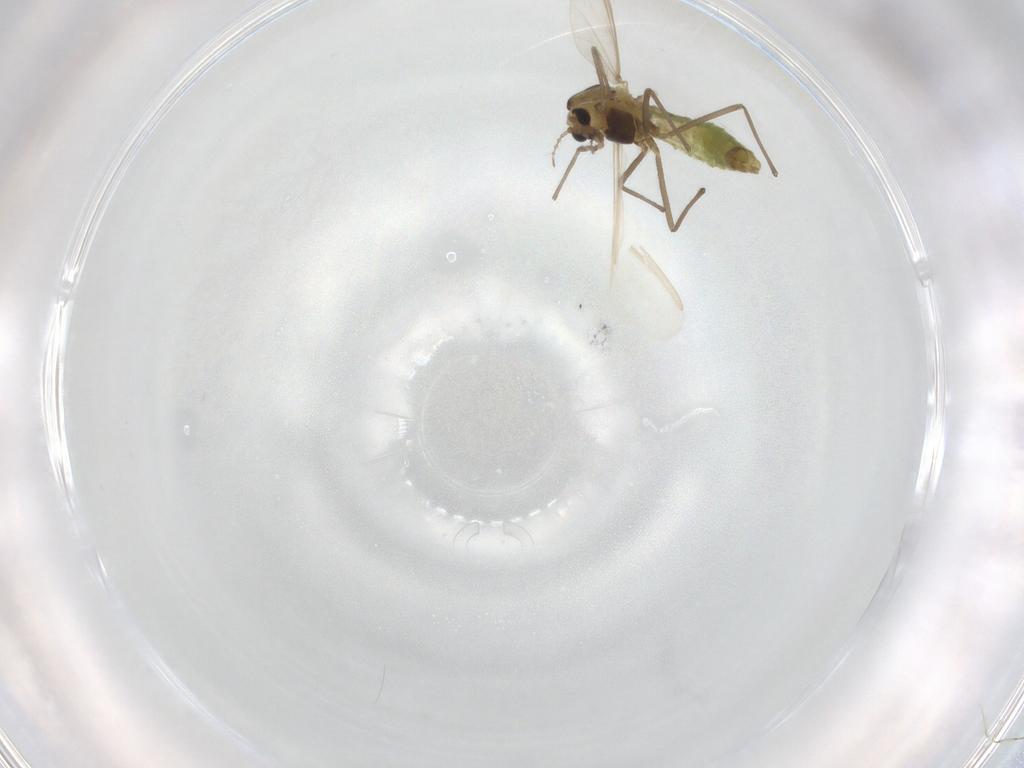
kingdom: Animalia
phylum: Arthropoda
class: Insecta
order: Diptera
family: Chironomidae
